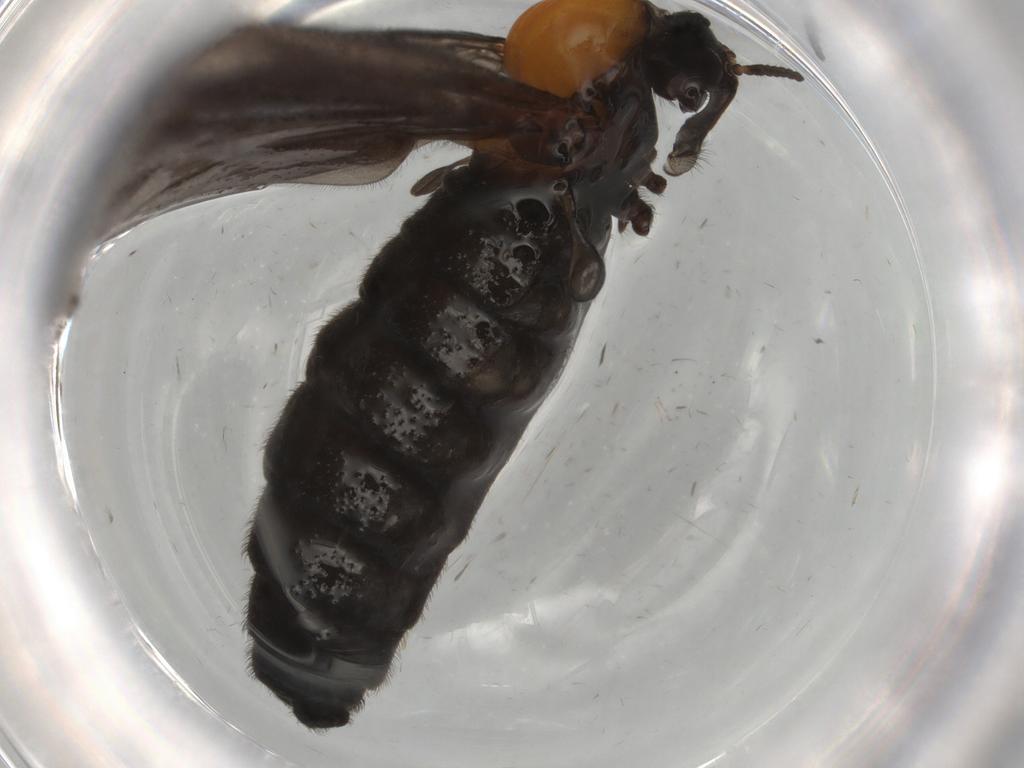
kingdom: Animalia
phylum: Arthropoda
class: Insecta
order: Diptera
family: Bibionidae
